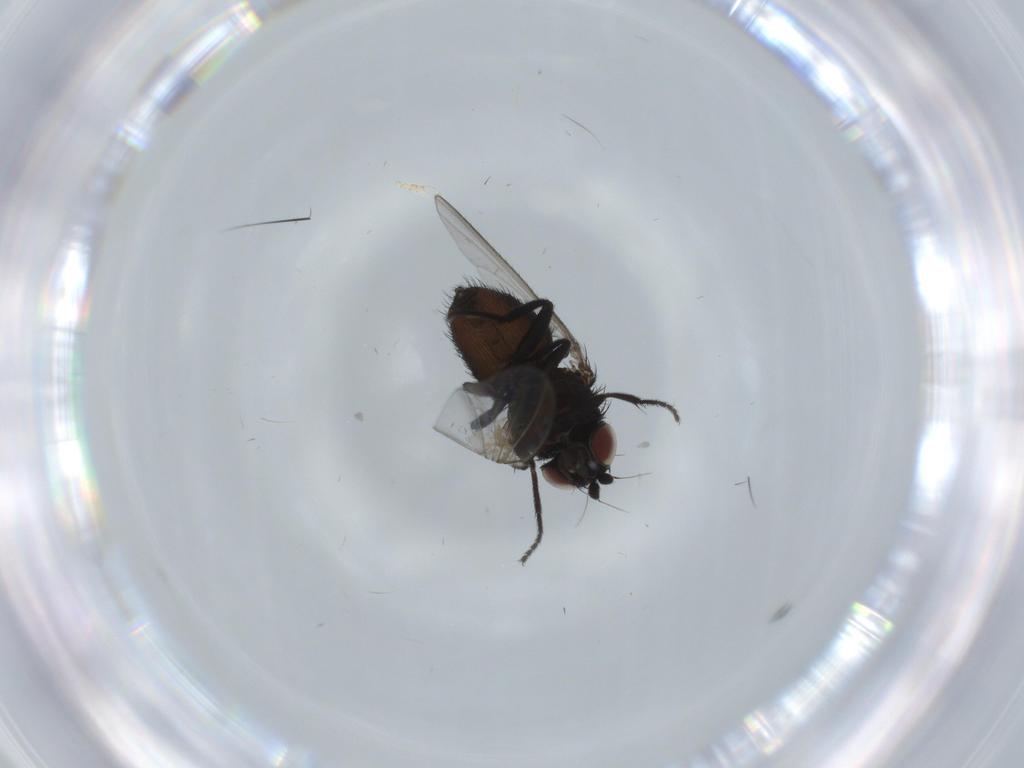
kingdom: Animalia
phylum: Arthropoda
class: Insecta
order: Diptera
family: Milichiidae
